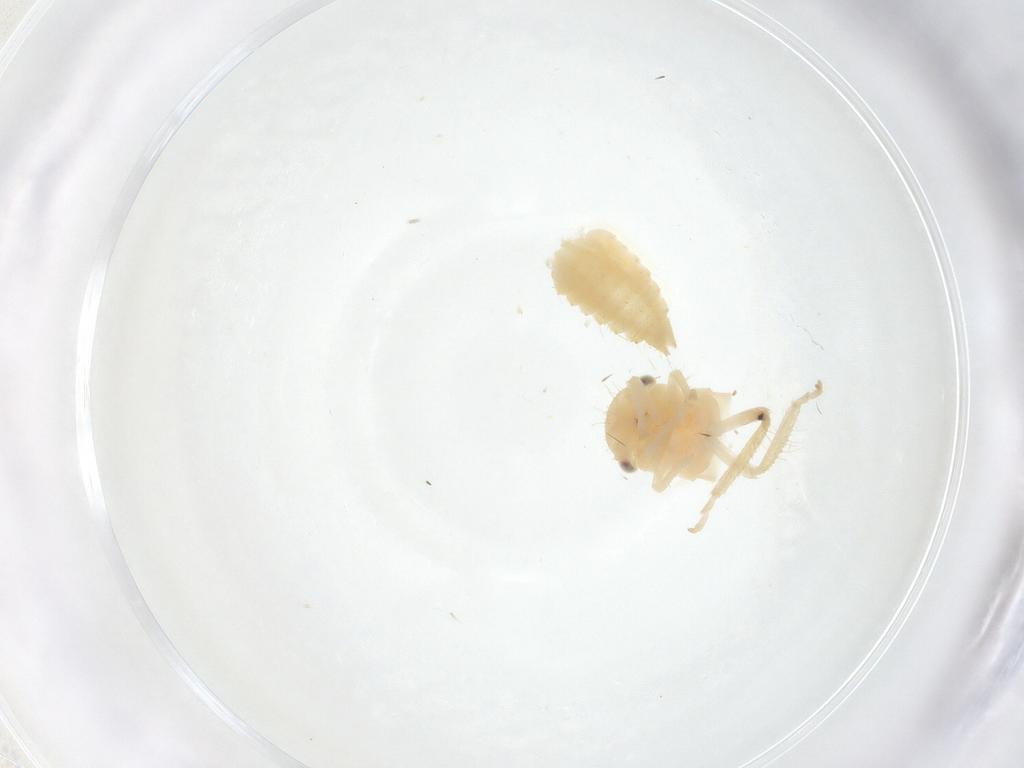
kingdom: Animalia
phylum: Arthropoda
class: Insecta
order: Hemiptera
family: Cicadellidae
